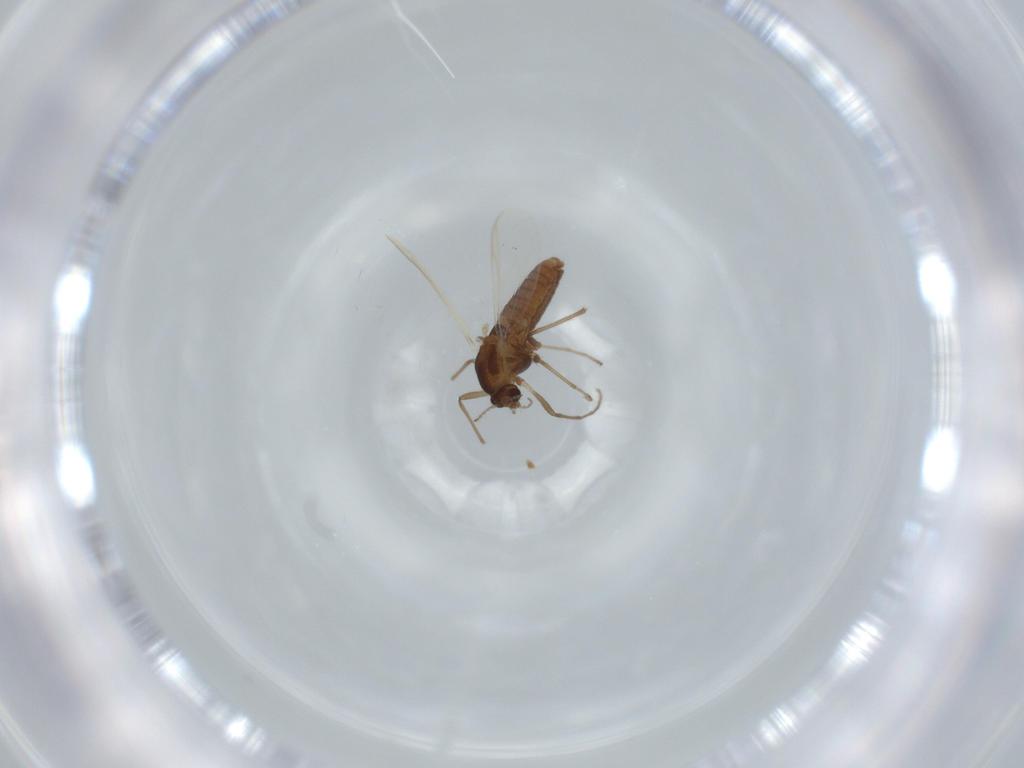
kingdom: Animalia
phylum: Arthropoda
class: Insecta
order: Diptera
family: Chironomidae
